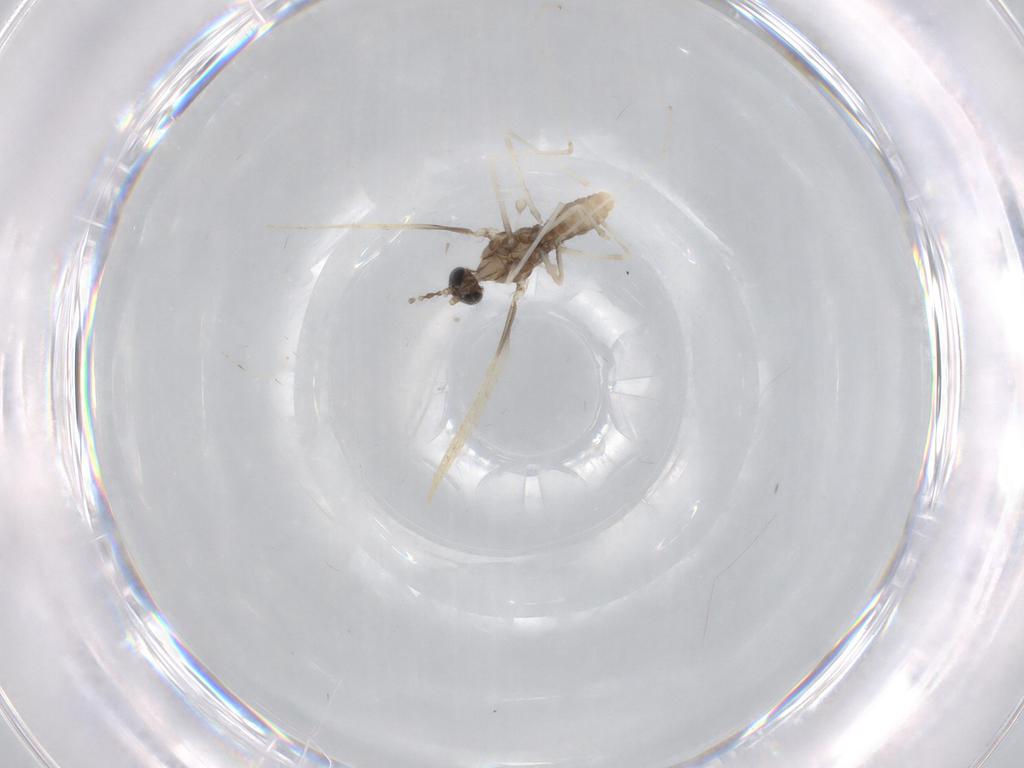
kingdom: Animalia
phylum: Arthropoda
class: Insecta
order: Diptera
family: Cecidomyiidae
